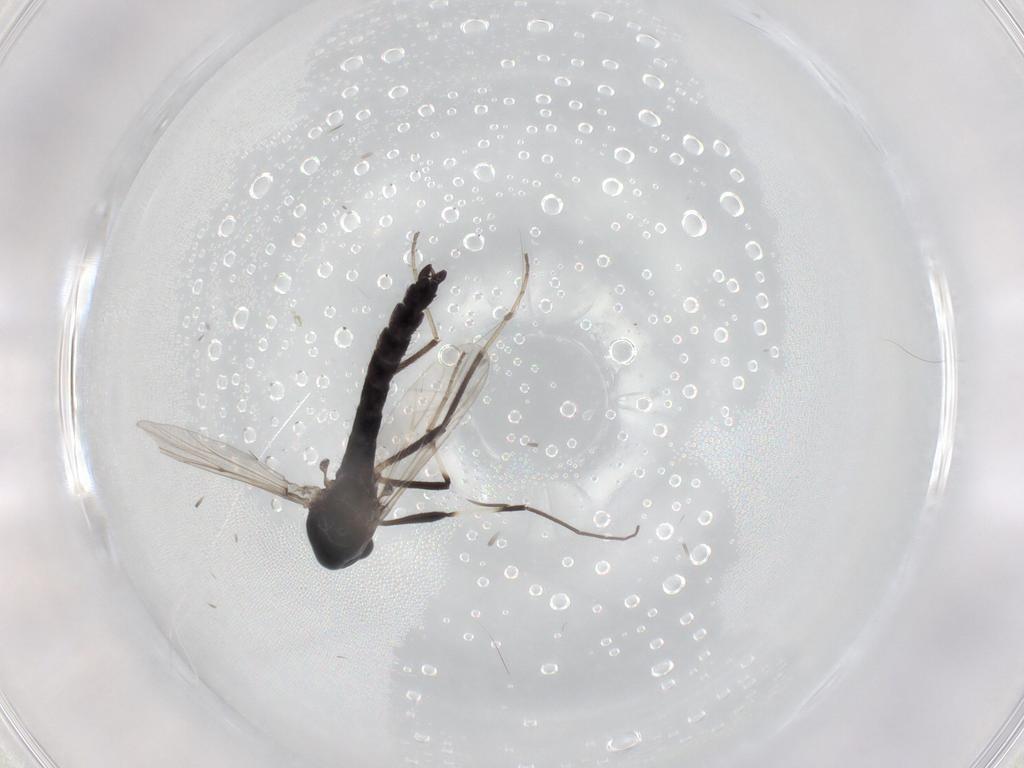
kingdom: Animalia
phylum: Arthropoda
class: Insecta
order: Diptera
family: Chironomidae
